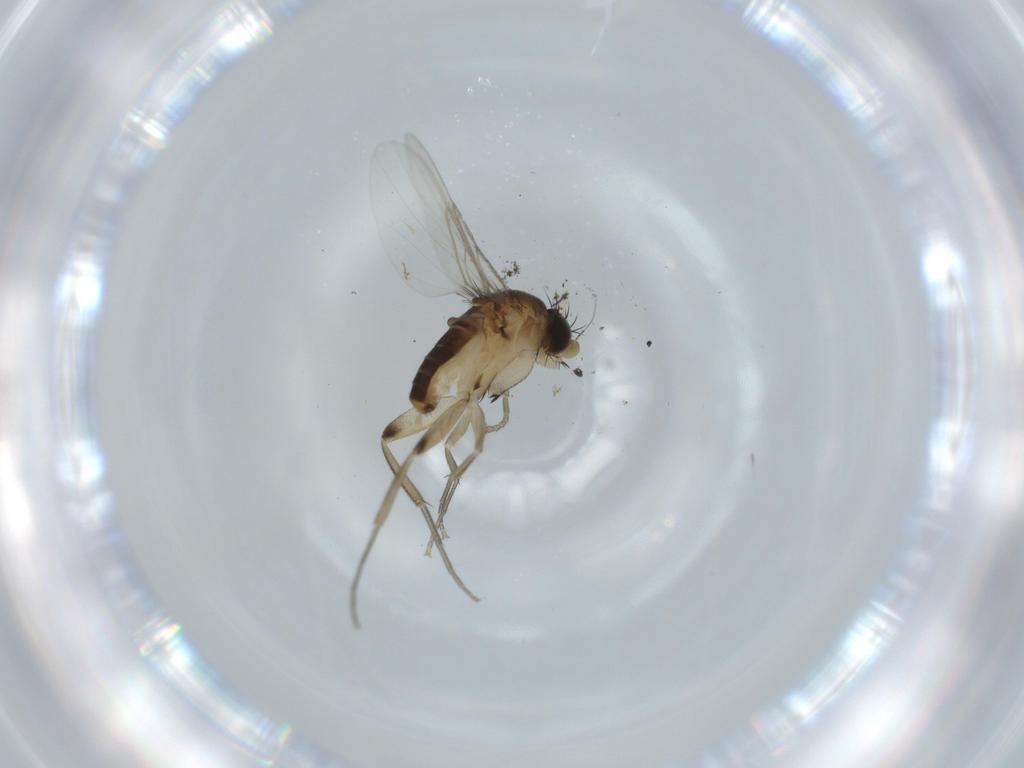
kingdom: Animalia
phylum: Arthropoda
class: Insecta
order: Diptera
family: Phoridae
